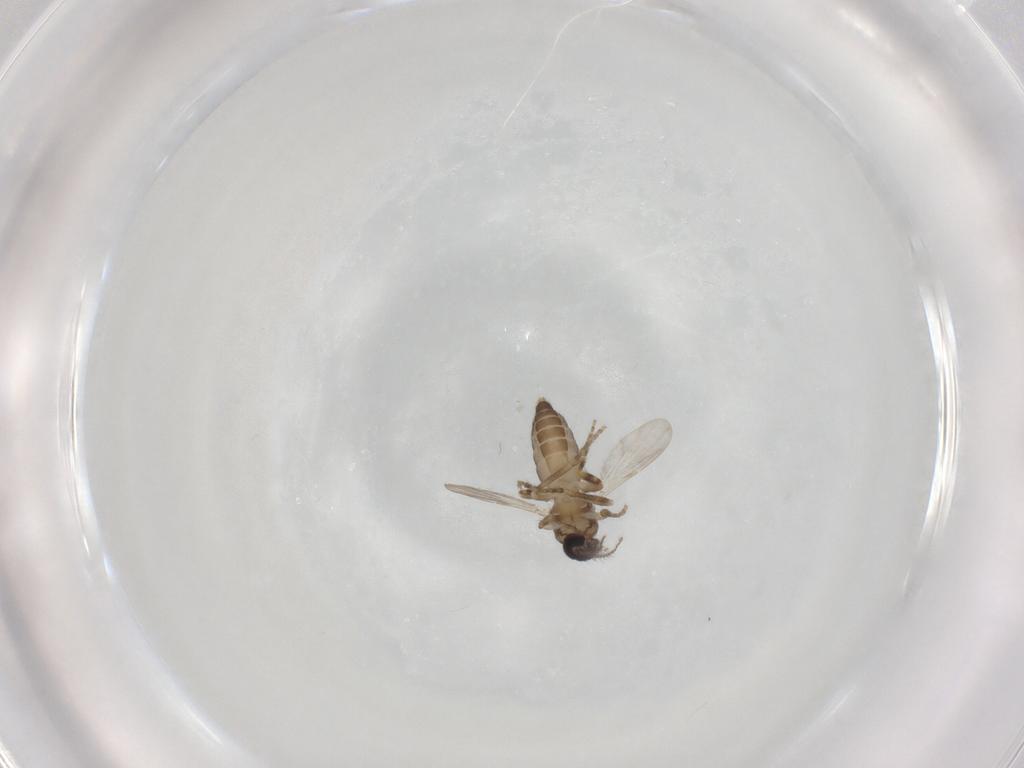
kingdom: Animalia
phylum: Arthropoda
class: Insecta
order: Diptera
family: Ceratopogonidae
